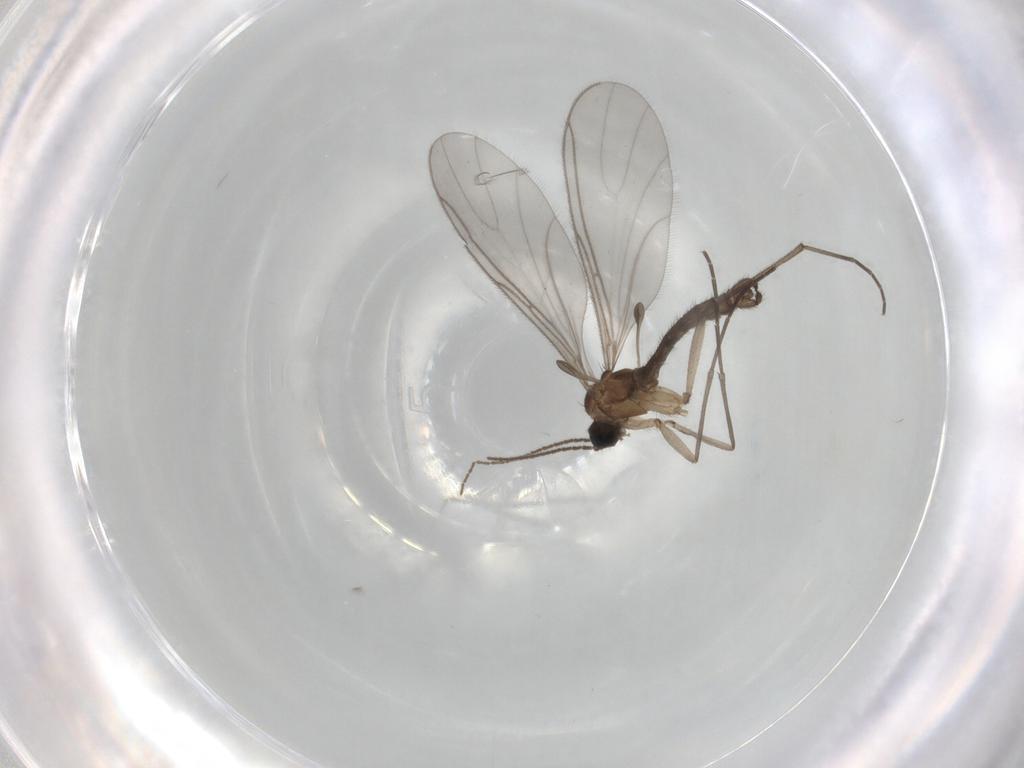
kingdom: Animalia
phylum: Arthropoda
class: Insecta
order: Diptera
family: Sciaridae
